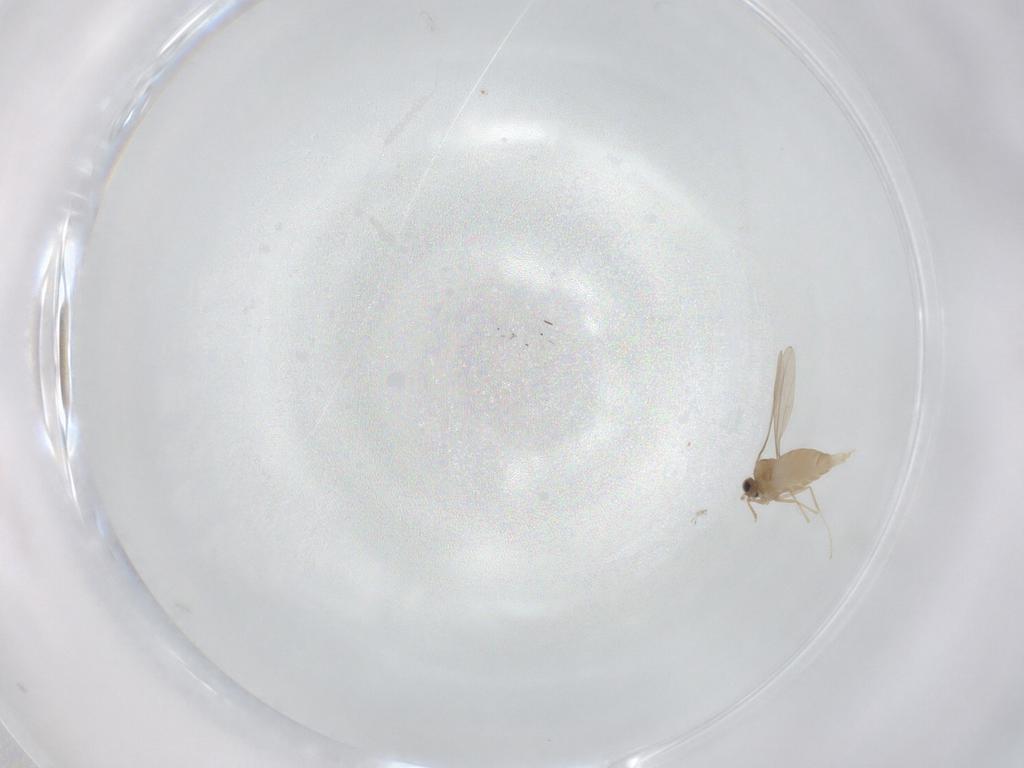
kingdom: Animalia
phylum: Arthropoda
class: Insecta
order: Diptera
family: Cecidomyiidae
